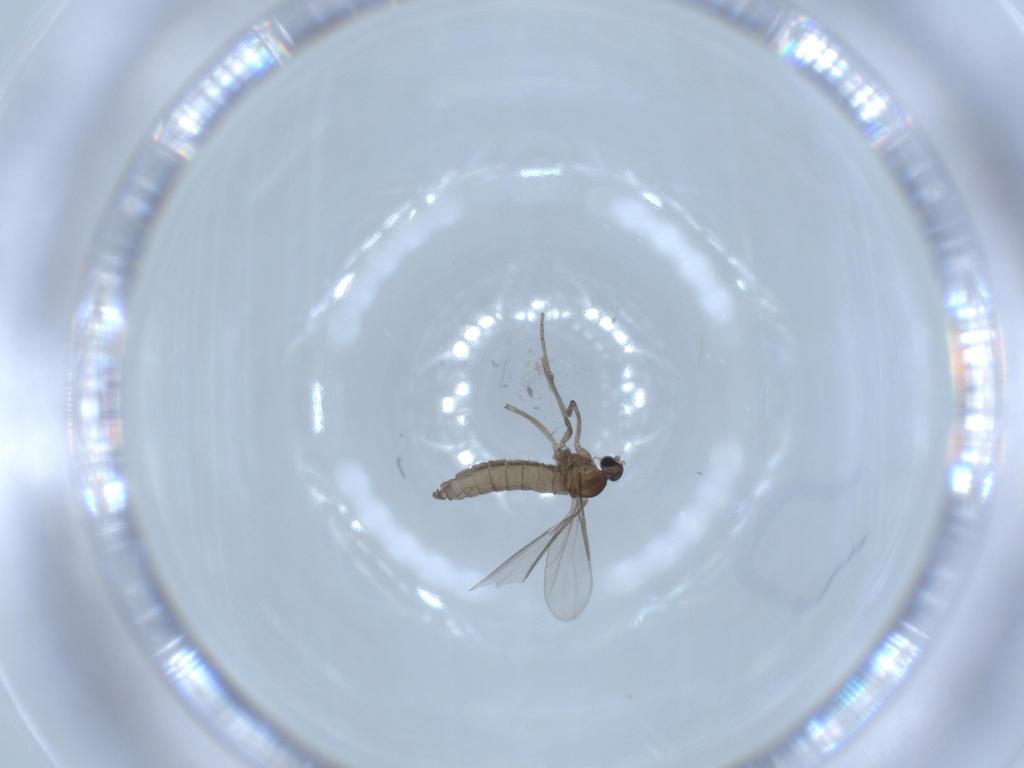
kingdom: Animalia
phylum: Arthropoda
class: Insecta
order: Diptera
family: Cecidomyiidae
